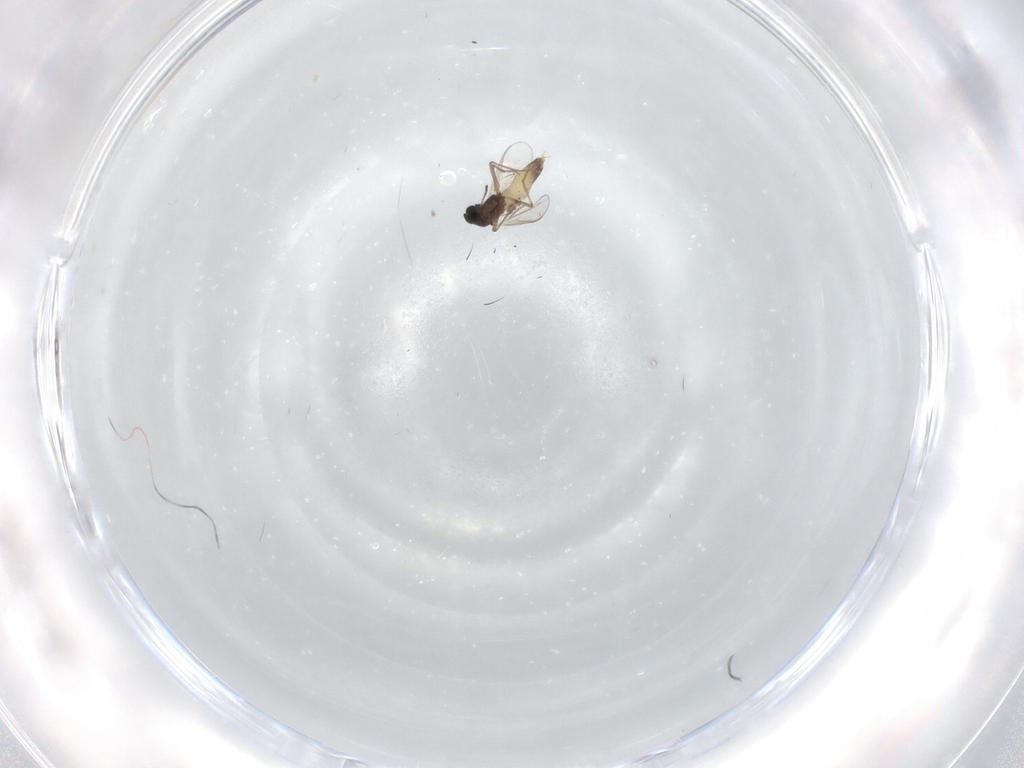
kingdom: Animalia
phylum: Arthropoda
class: Insecta
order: Diptera
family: Chironomidae
